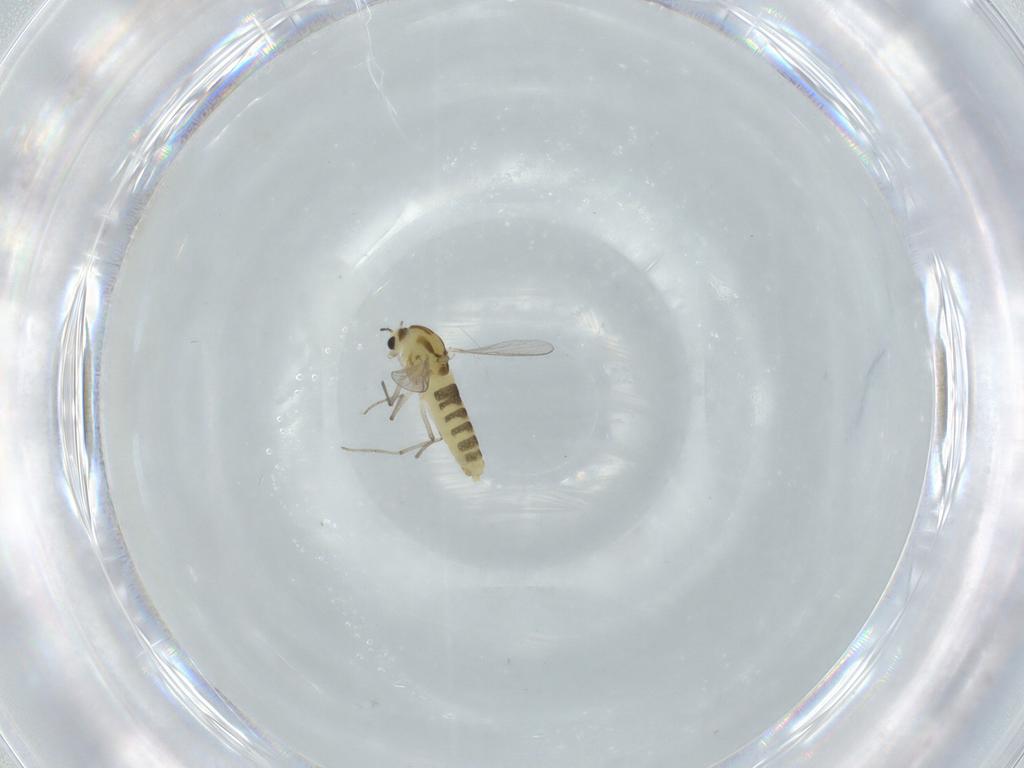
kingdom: Animalia
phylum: Arthropoda
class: Insecta
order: Diptera
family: Chironomidae
